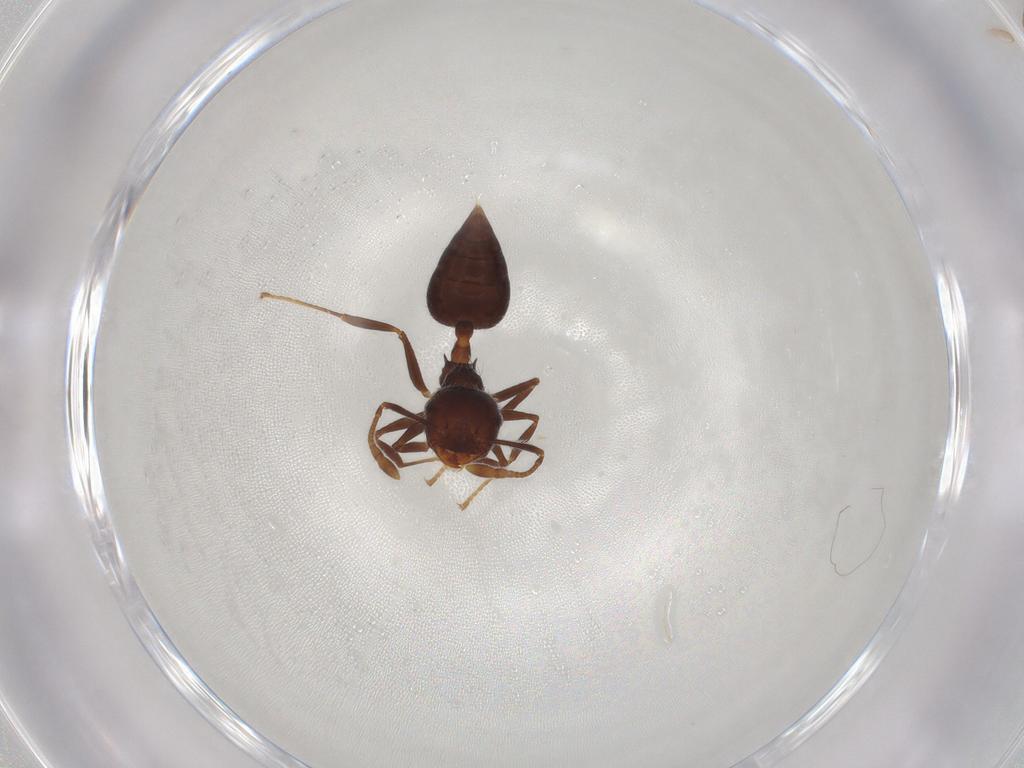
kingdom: Animalia
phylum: Arthropoda
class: Insecta
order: Hymenoptera
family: Formicidae
